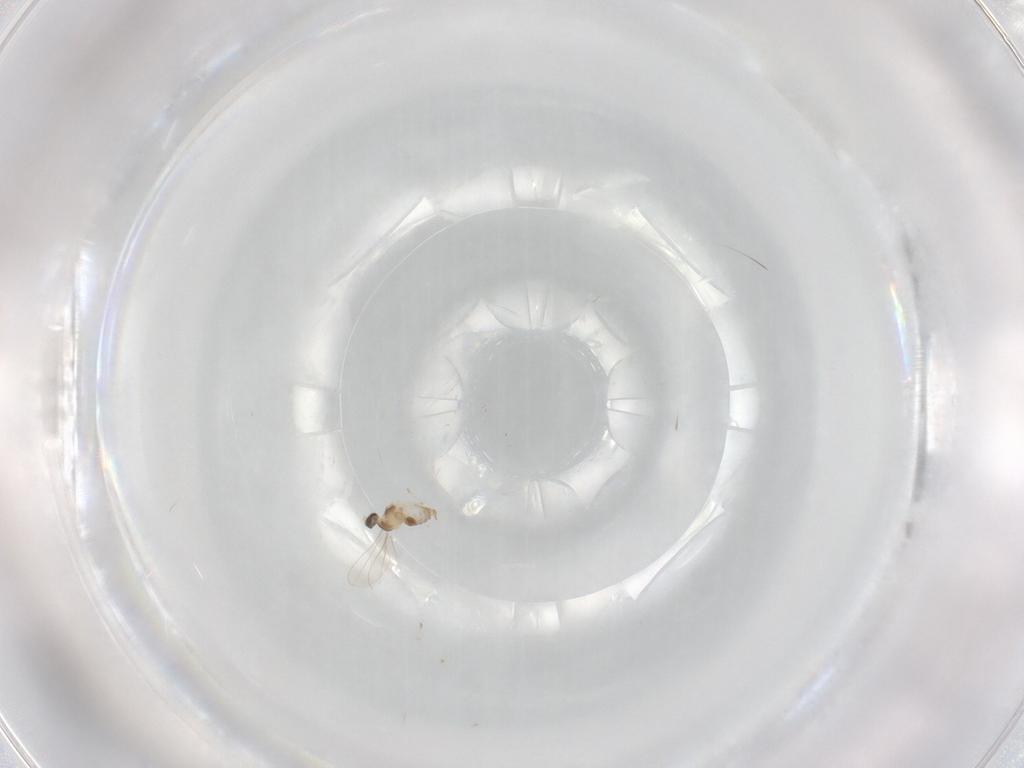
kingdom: Animalia
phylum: Arthropoda
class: Insecta
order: Diptera
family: Cecidomyiidae
